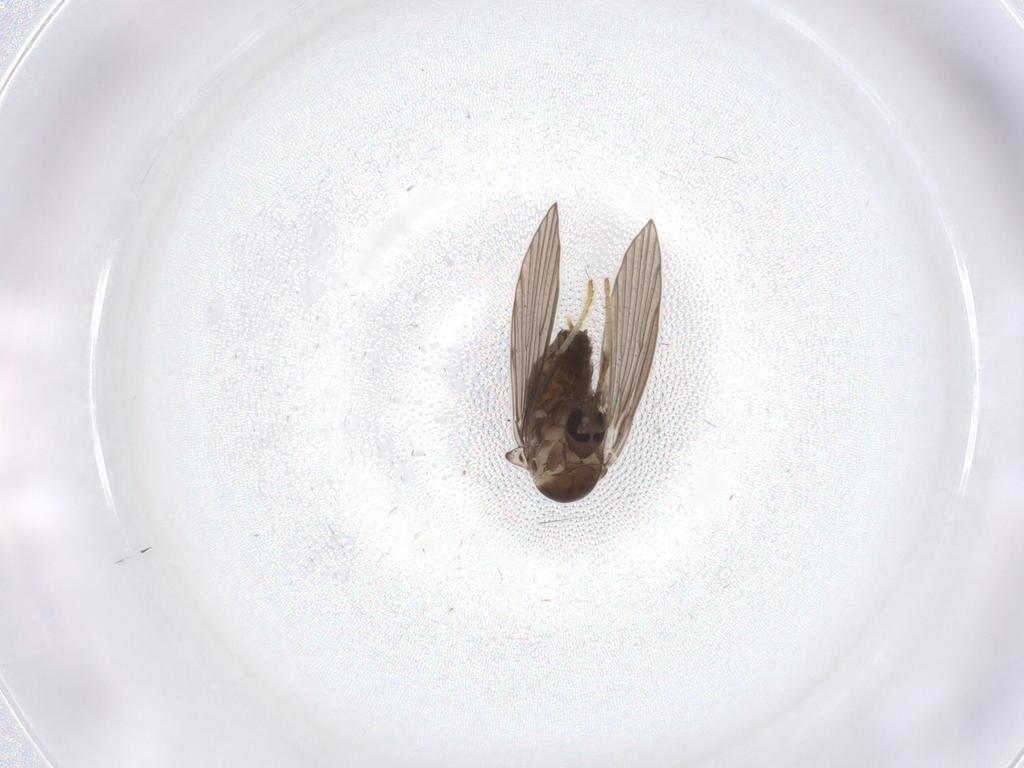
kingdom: Animalia
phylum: Arthropoda
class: Insecta
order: Diptera
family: Psychodidae
